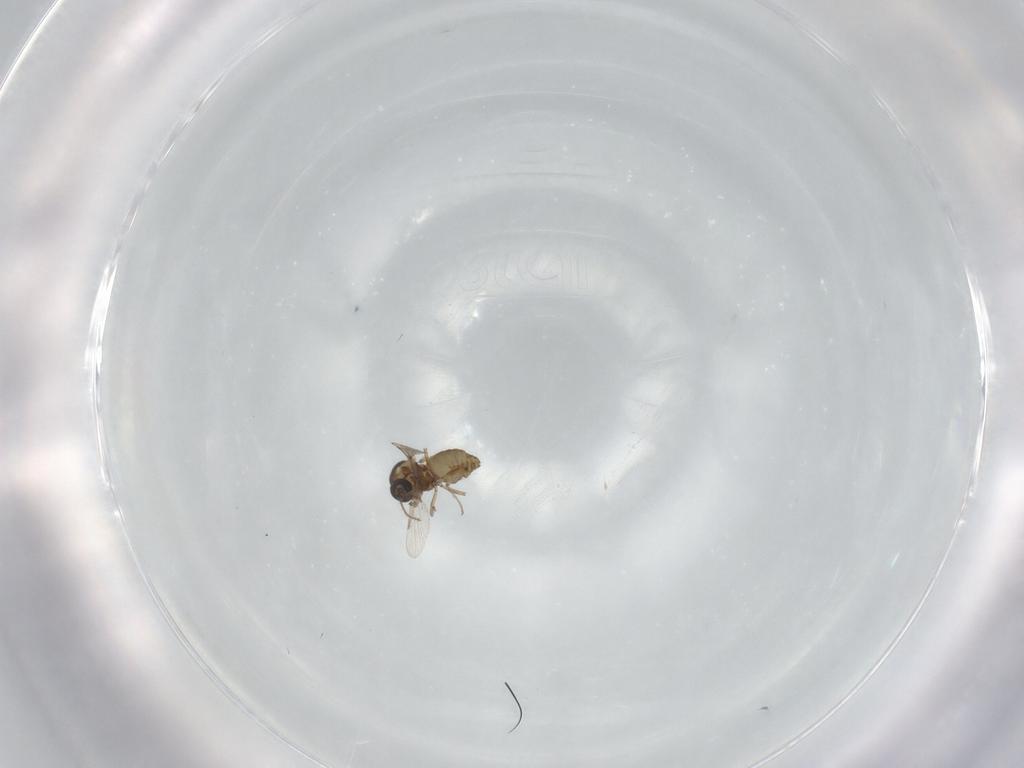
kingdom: Animalia
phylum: Arthropoda
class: Insecta
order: Diptera
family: Ceratopogonidae
